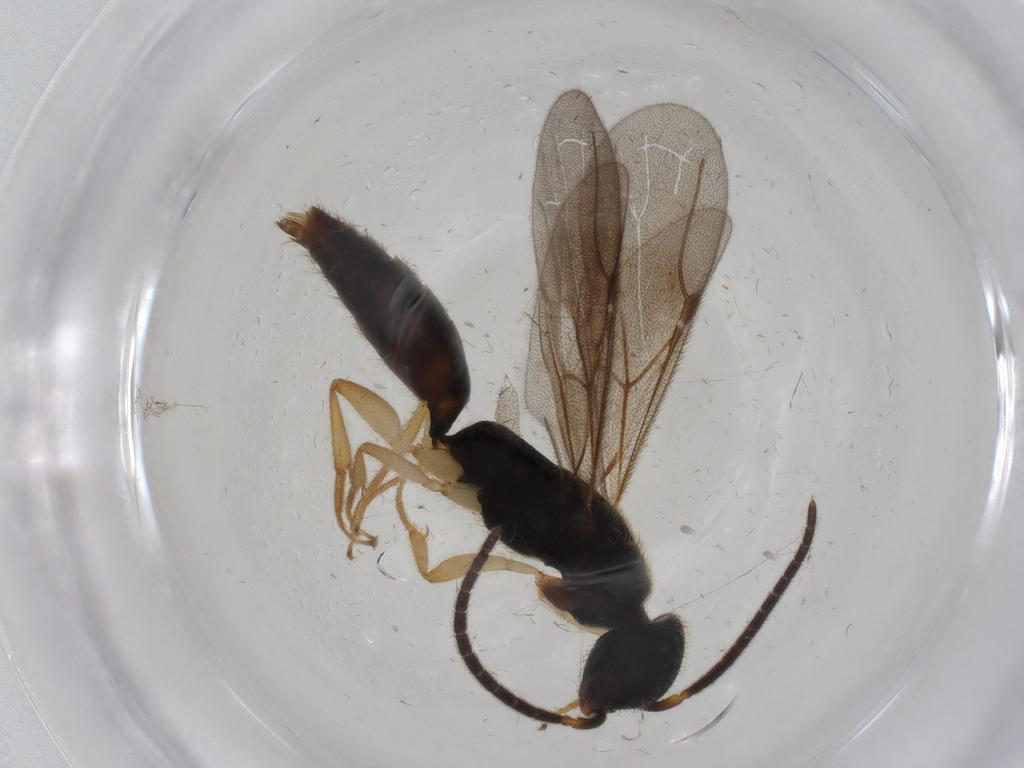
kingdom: Animalia
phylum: Arthropoda
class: Insecta
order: Hymenoptera
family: Bethylidae
